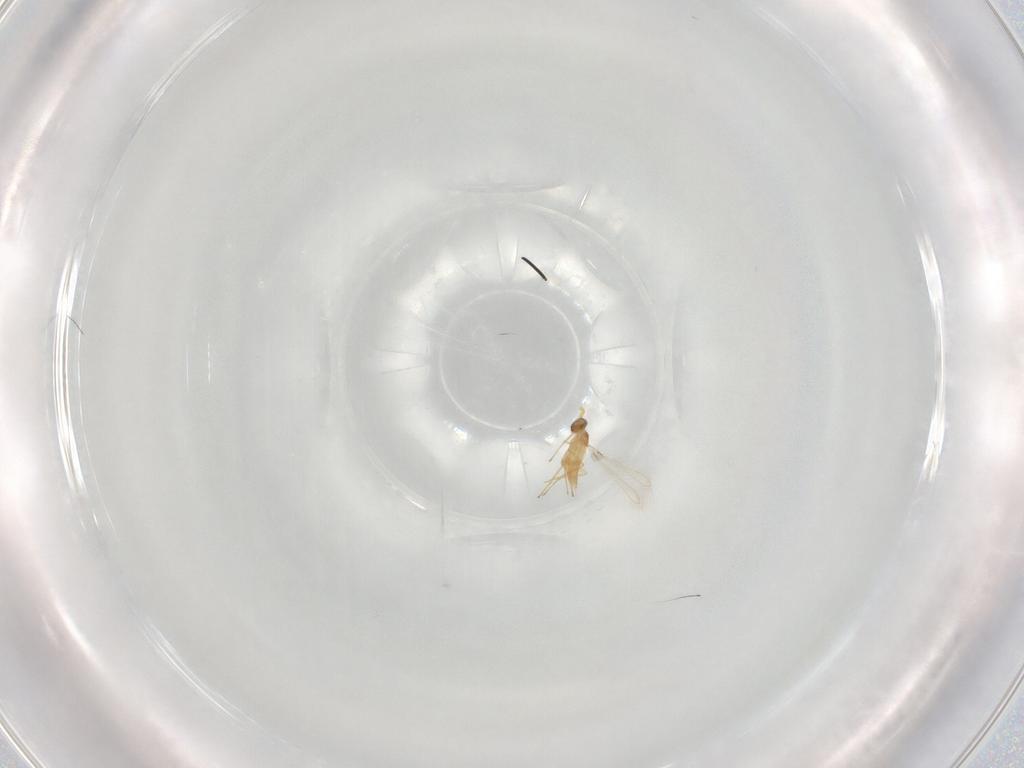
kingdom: Animalia
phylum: Arthropoda
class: Insecta
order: Hymenoptera
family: Mymaridae
